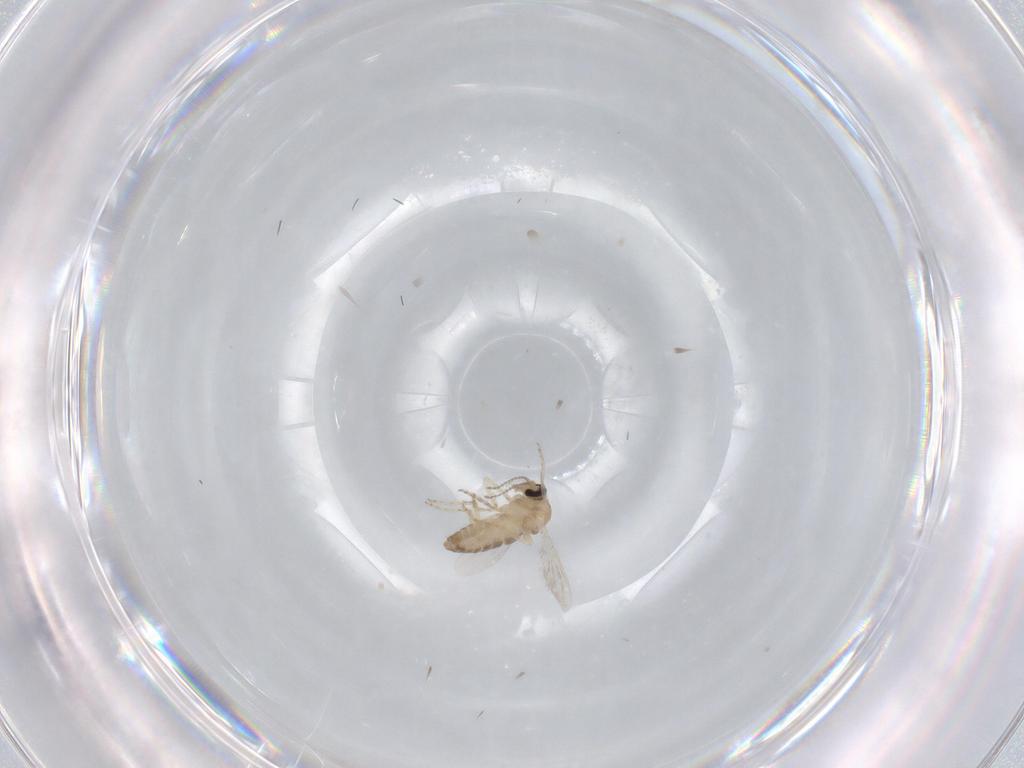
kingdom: Animalia
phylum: Arthropoda
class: Insecta
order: Diptera
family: Ceratopogonidae
